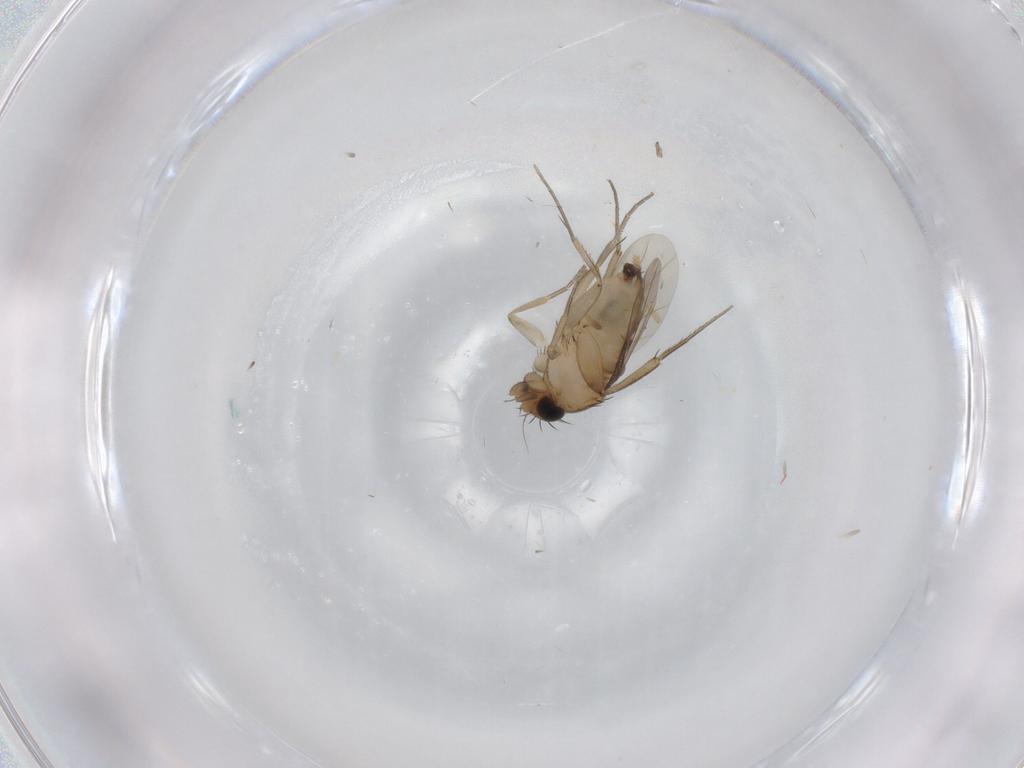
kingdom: Animalia
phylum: Arthropoda
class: Insecta
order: Diptera
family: Phoridae
